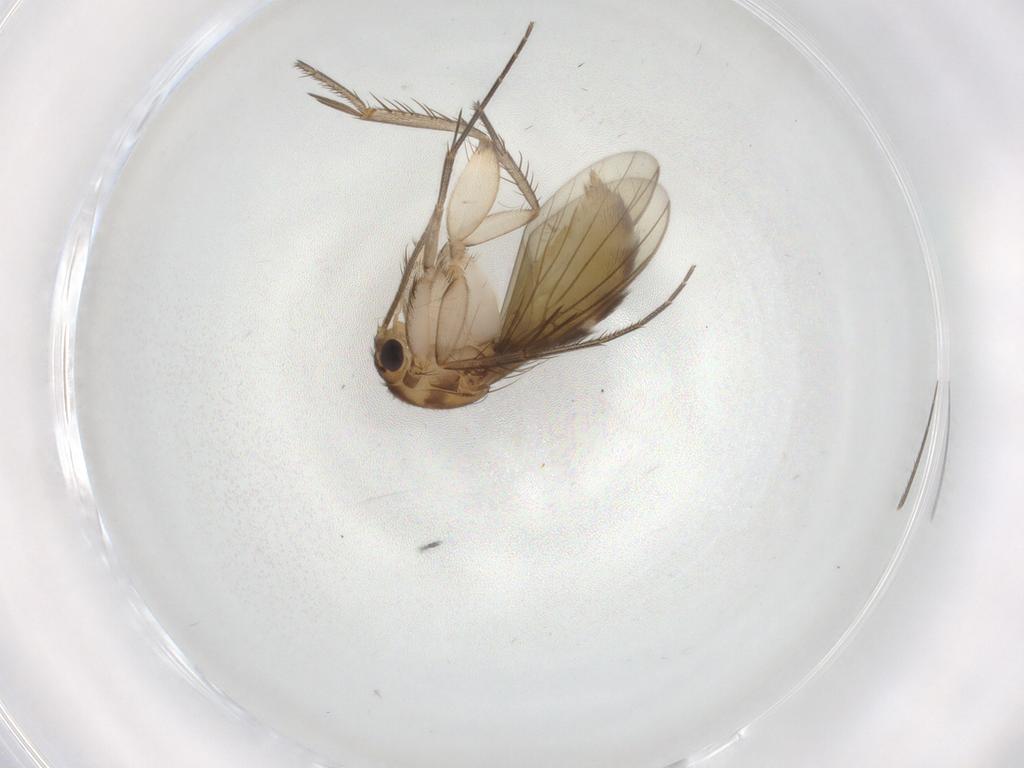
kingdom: Animalia
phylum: Arthropoda
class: Insecta
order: Diptera
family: Mycetophilidae
